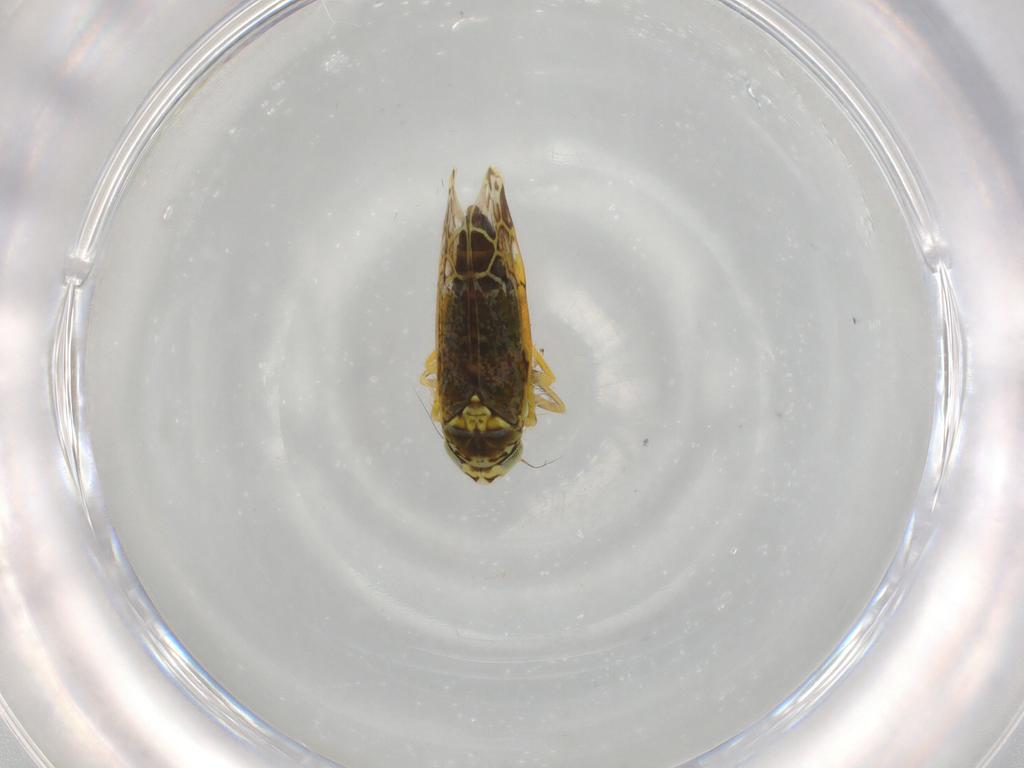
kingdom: Animalia
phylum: Arthropoda
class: Insecta
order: Hemiptera
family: Cicadellidae
